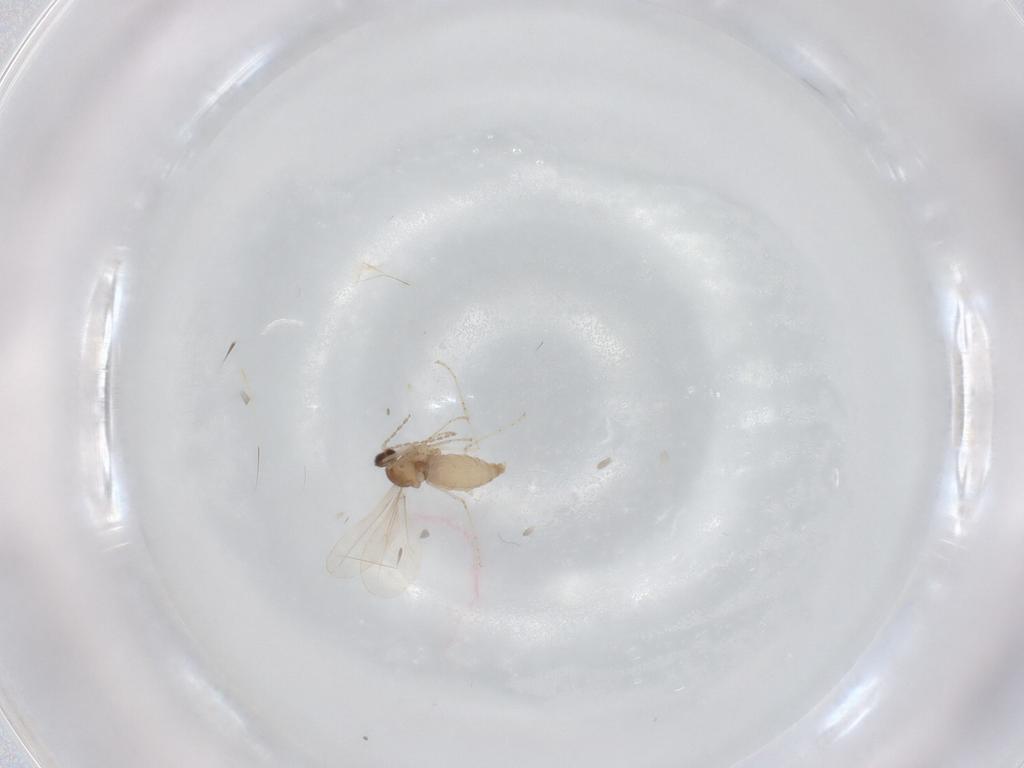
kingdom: Animalia
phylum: Arthropoda
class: Insecta
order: Diptera
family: Cecidomyiidae
